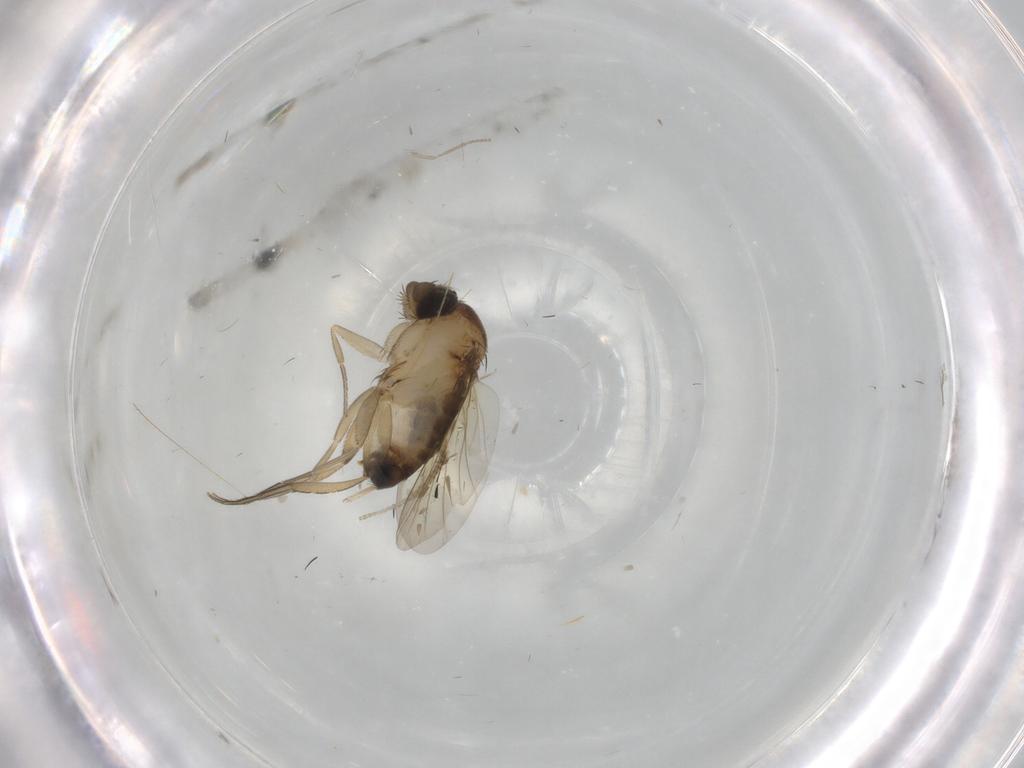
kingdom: Animalia
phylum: Arthropoda
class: Insecta
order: Diptera
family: Phoridae
